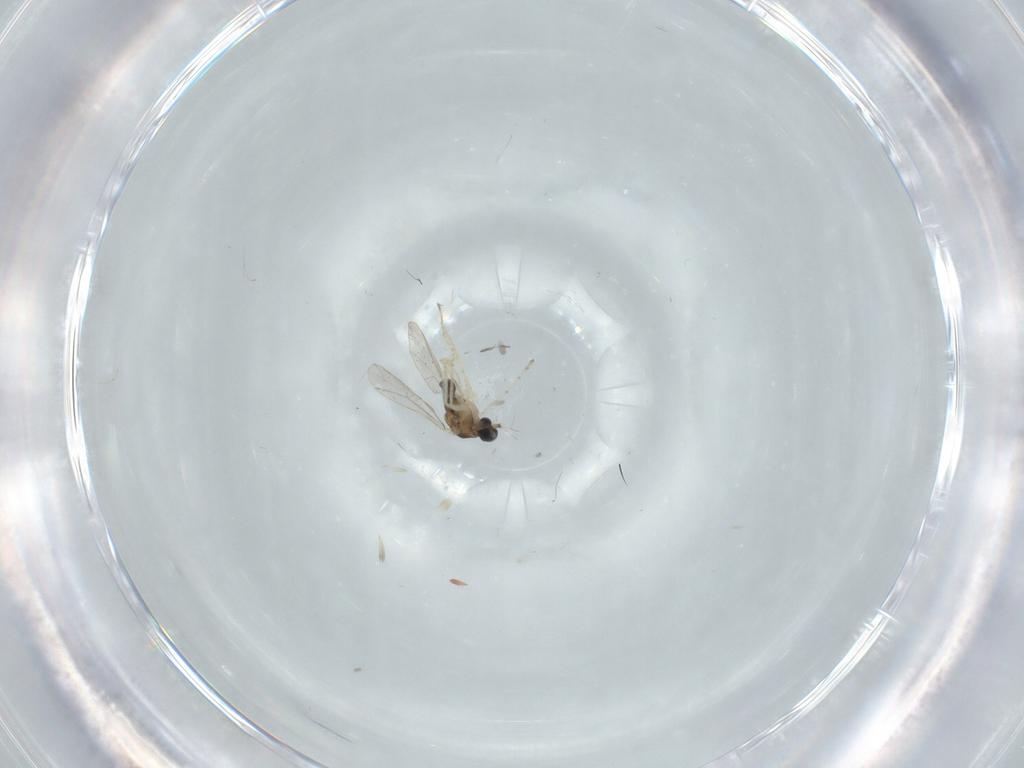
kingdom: Animalia
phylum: Arthropoda
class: Insecta
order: Diptera
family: Cecidomyiidae
